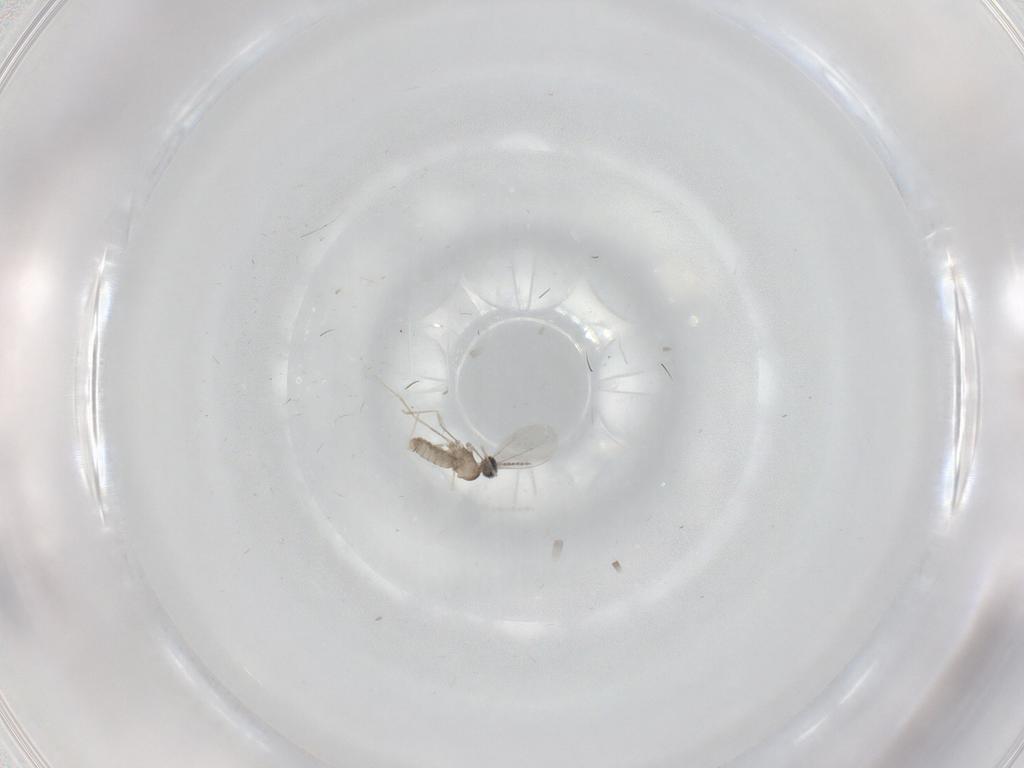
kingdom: Animalia
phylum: Arthropoda
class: Insecta
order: Diptera
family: Cecidomyiidae
